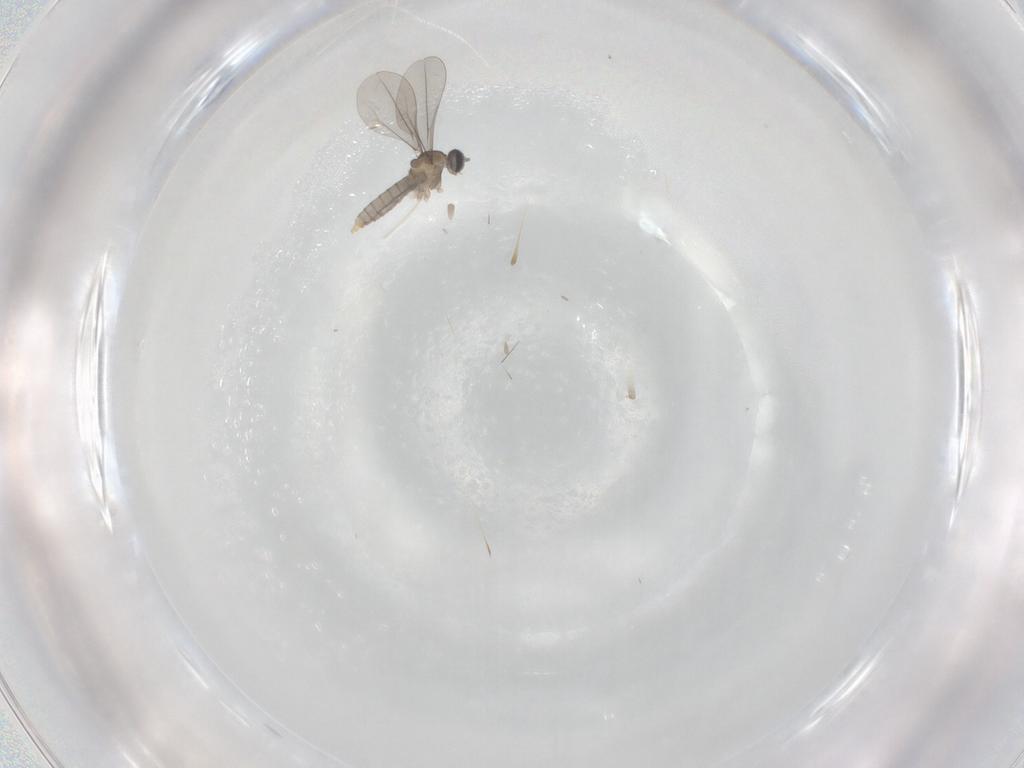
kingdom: Animalia
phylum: Arthropoda
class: Insecta
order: Diptera
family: Cecidomyiidae
